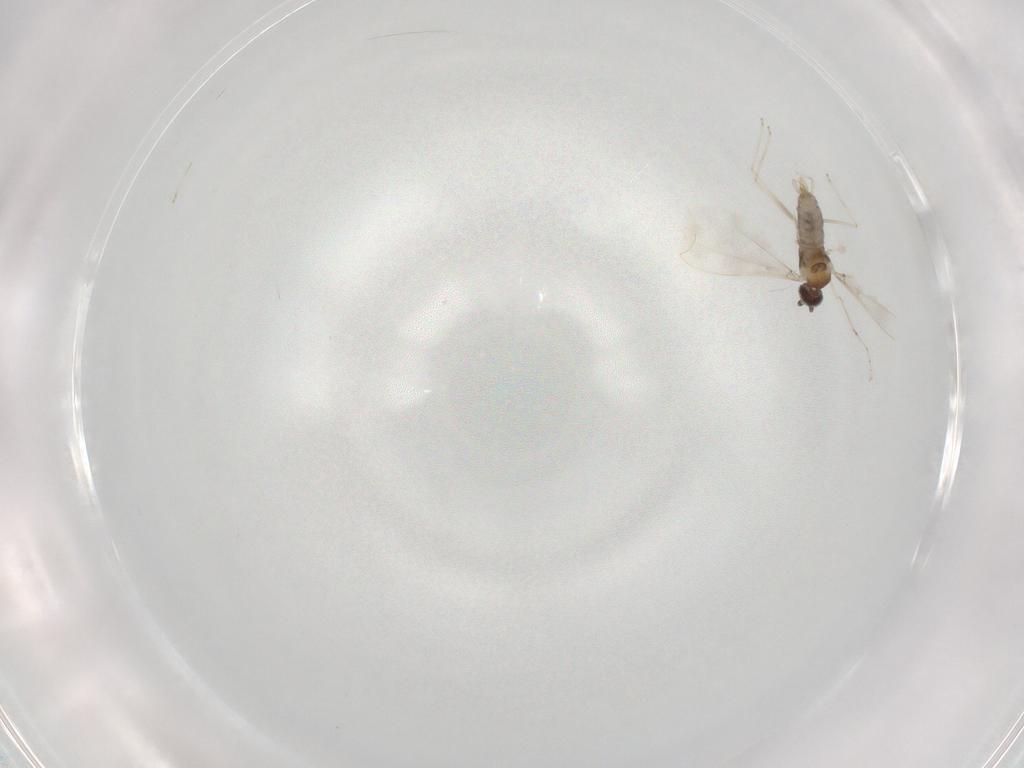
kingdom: Animalia
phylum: Arthropoda
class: Insecta
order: Diptera
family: Cecidomyiidae
